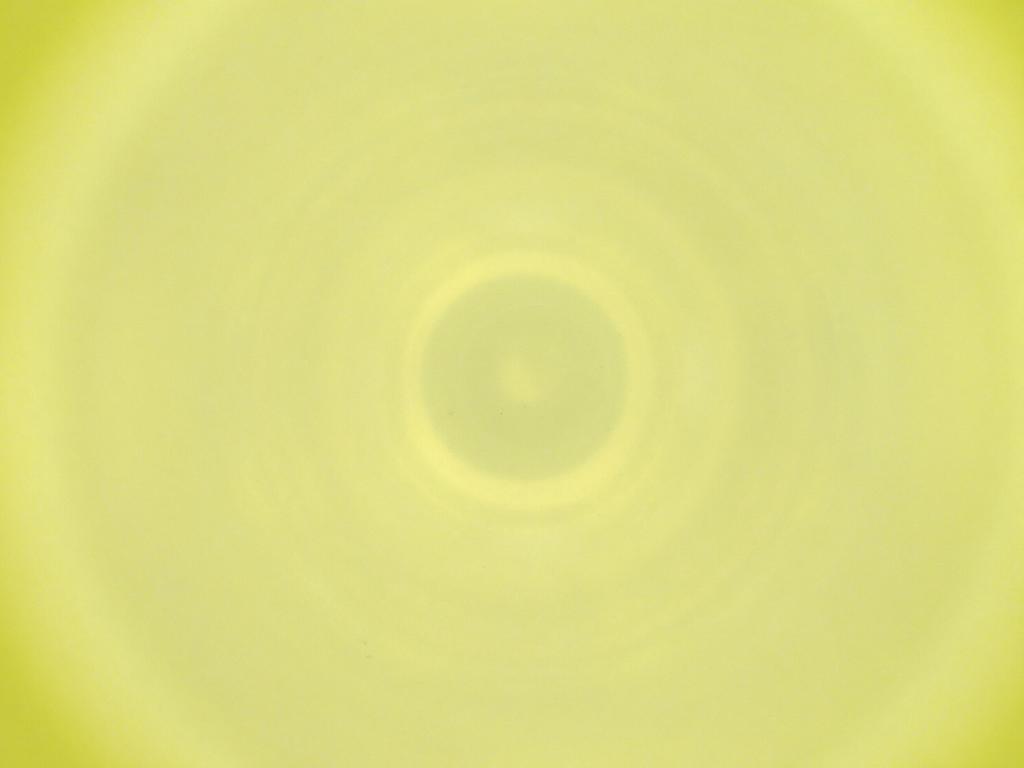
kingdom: Animalia
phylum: Arthropoda
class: Insecta
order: Diptera
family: Cecidomyiidae
